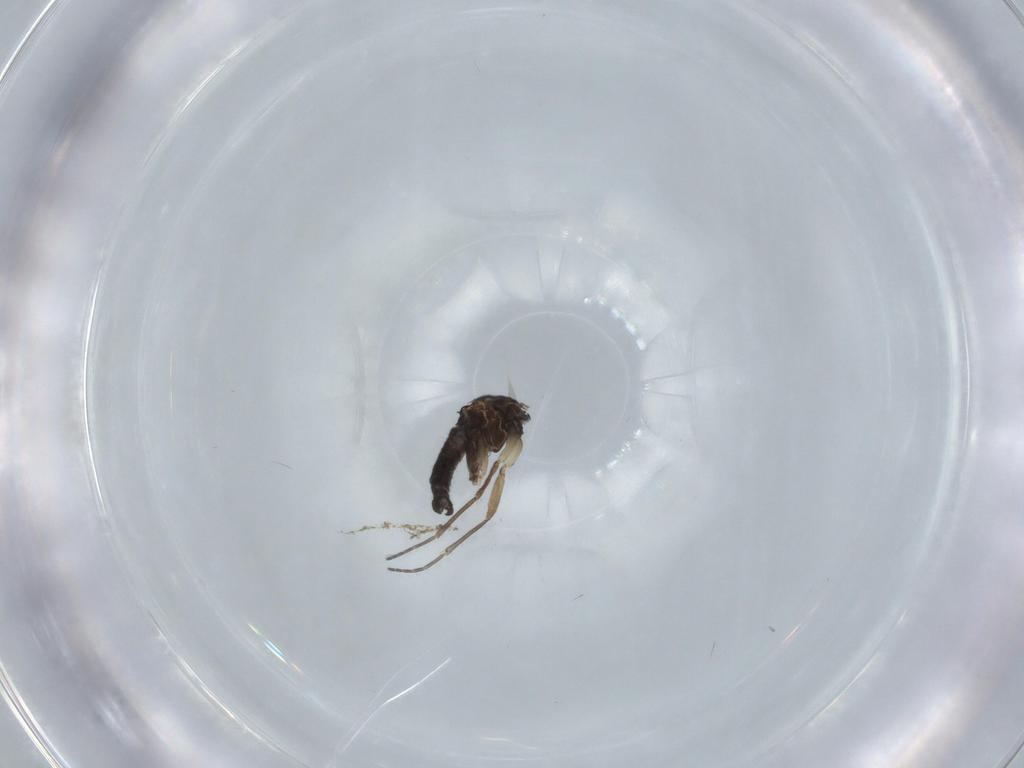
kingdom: Animalia
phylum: Arthropoda
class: Insecta
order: Diptera
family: Sciaridae
